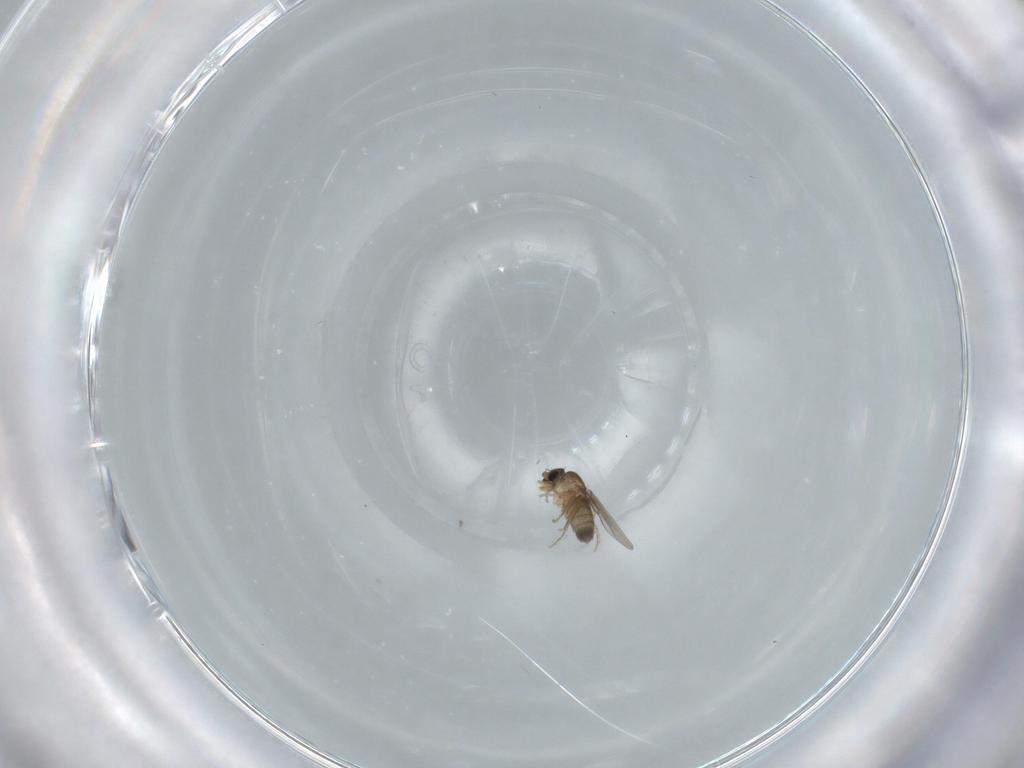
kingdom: Animalia
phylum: Arthropoda
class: Insecta
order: Diptera
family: Phoridae
